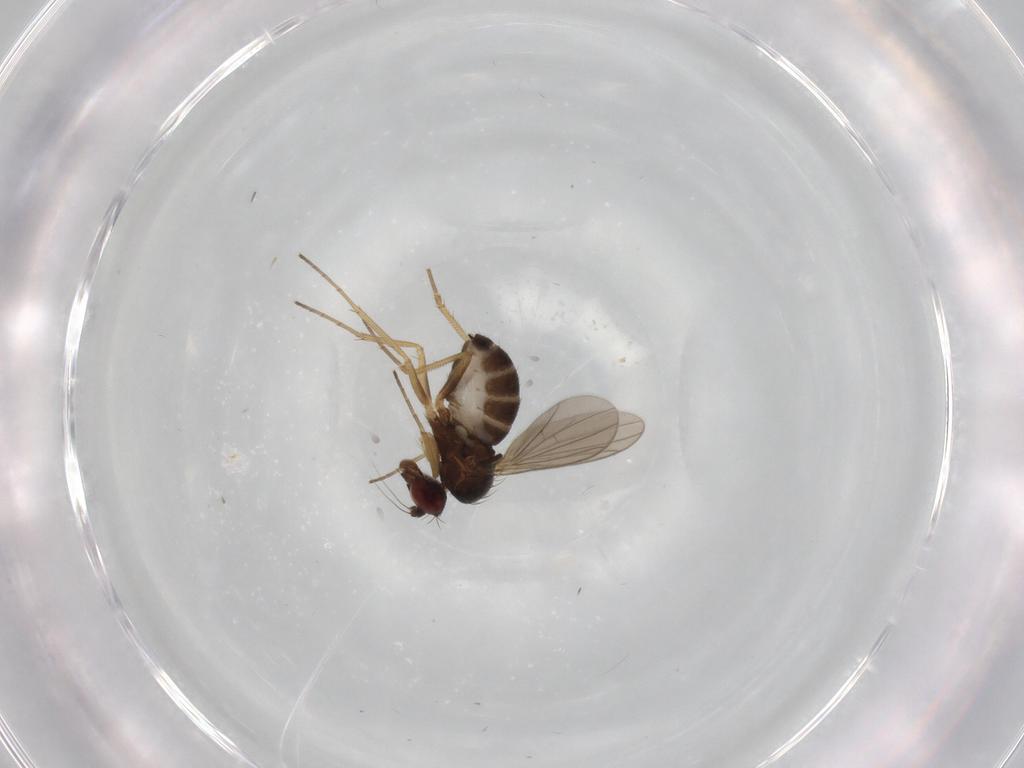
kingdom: Animalia
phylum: Arthropoda
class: Insecta
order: Diptera
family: Dolichopodidae
